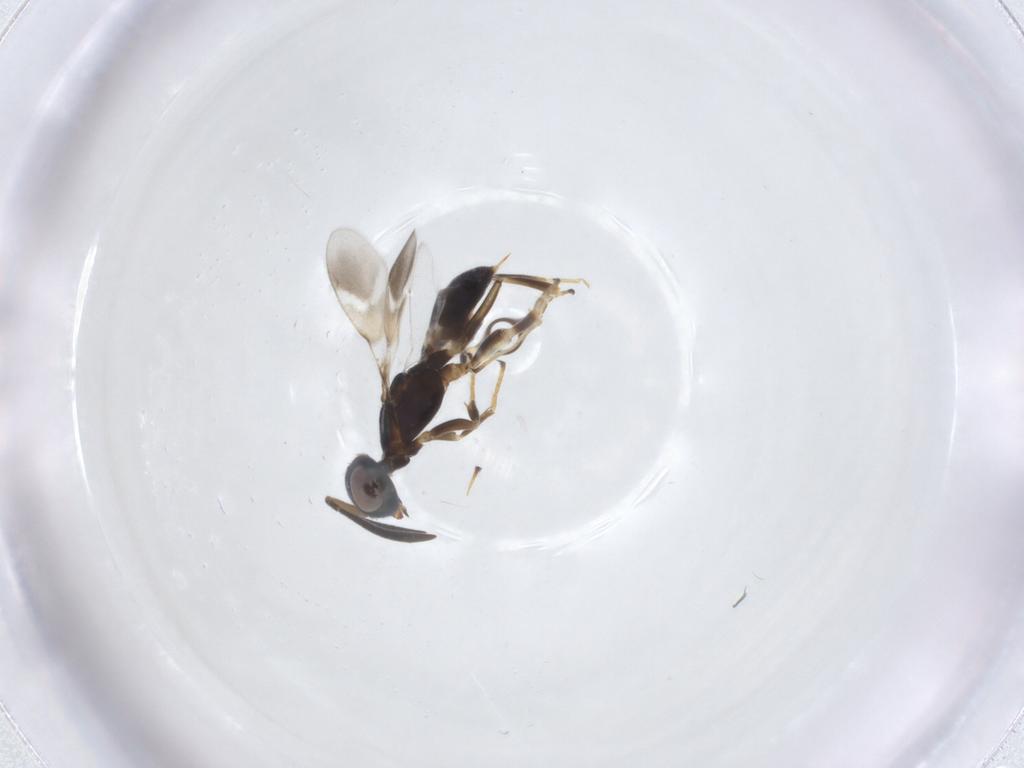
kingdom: Animalia
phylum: Arthropoda
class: Insecta
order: Hymenoptera
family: Eupelmidae
